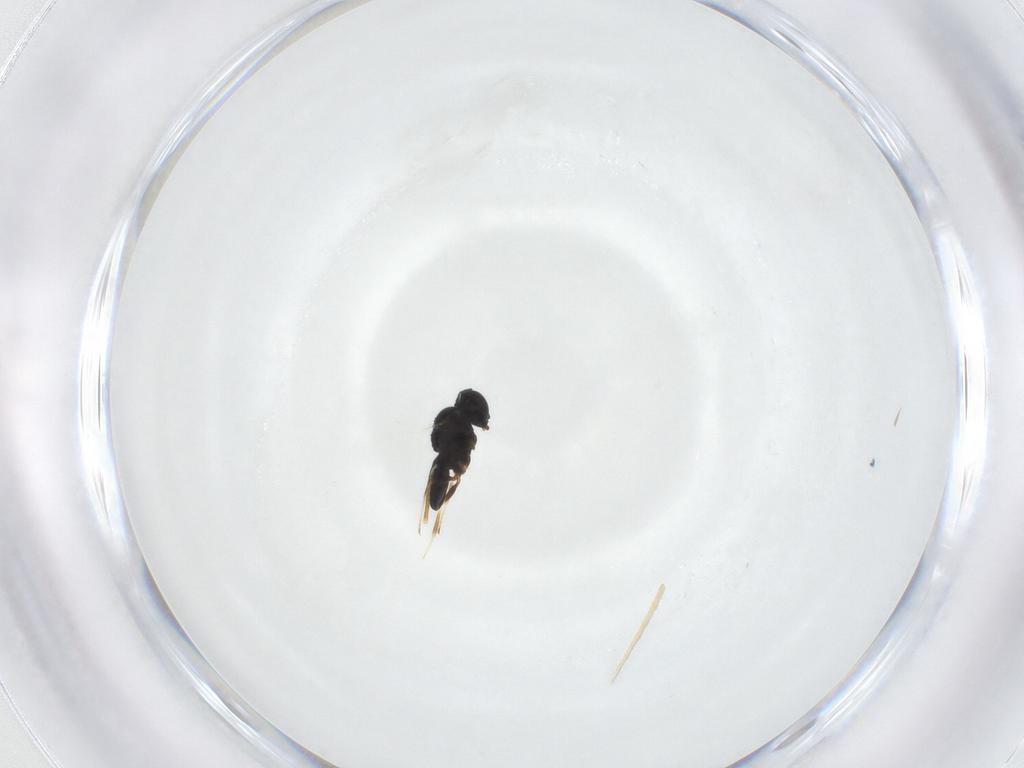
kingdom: Animalia
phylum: Arthropoda
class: Insecta
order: Hymenoptera
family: Scelionidae
